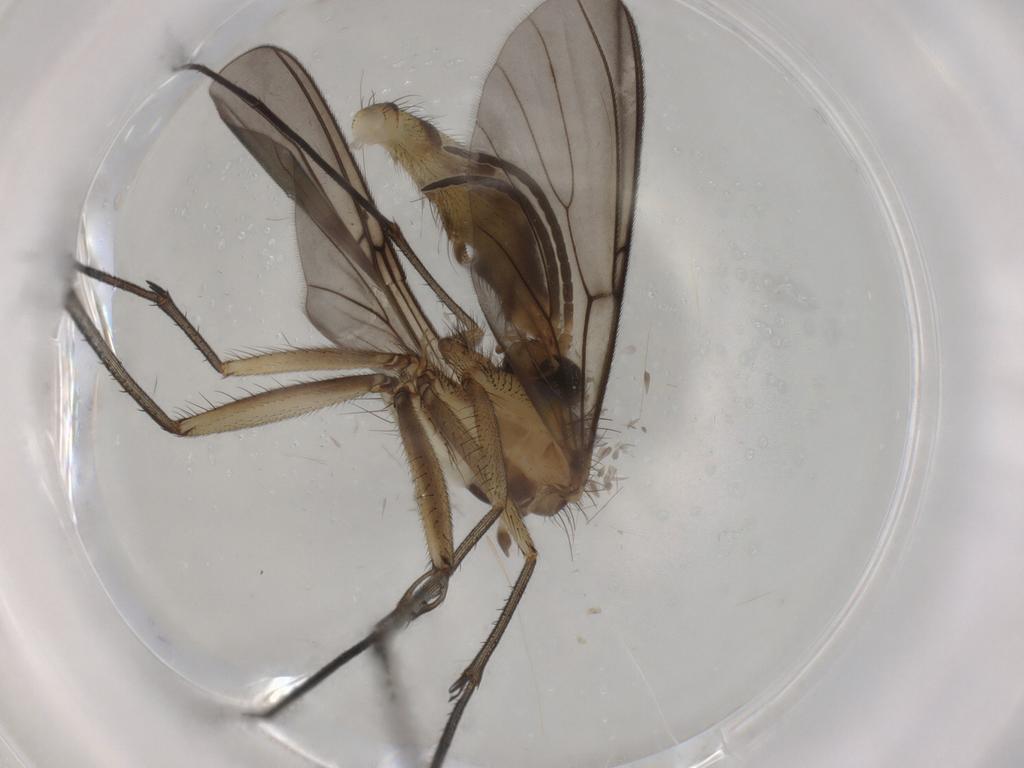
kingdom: Animalia
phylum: Arthropoda
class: Insecta
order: Diptera
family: Mycetophilidae
